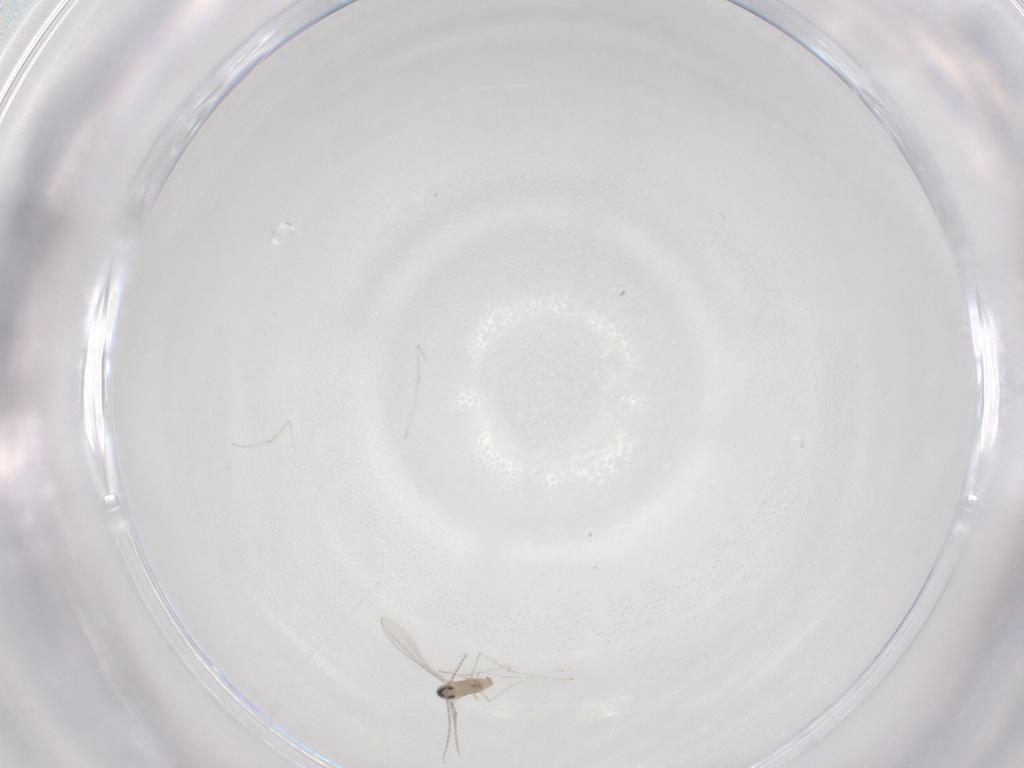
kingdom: Animalia
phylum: Arthropoda
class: Insecta
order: Diptera
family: Cecidomyiidae
